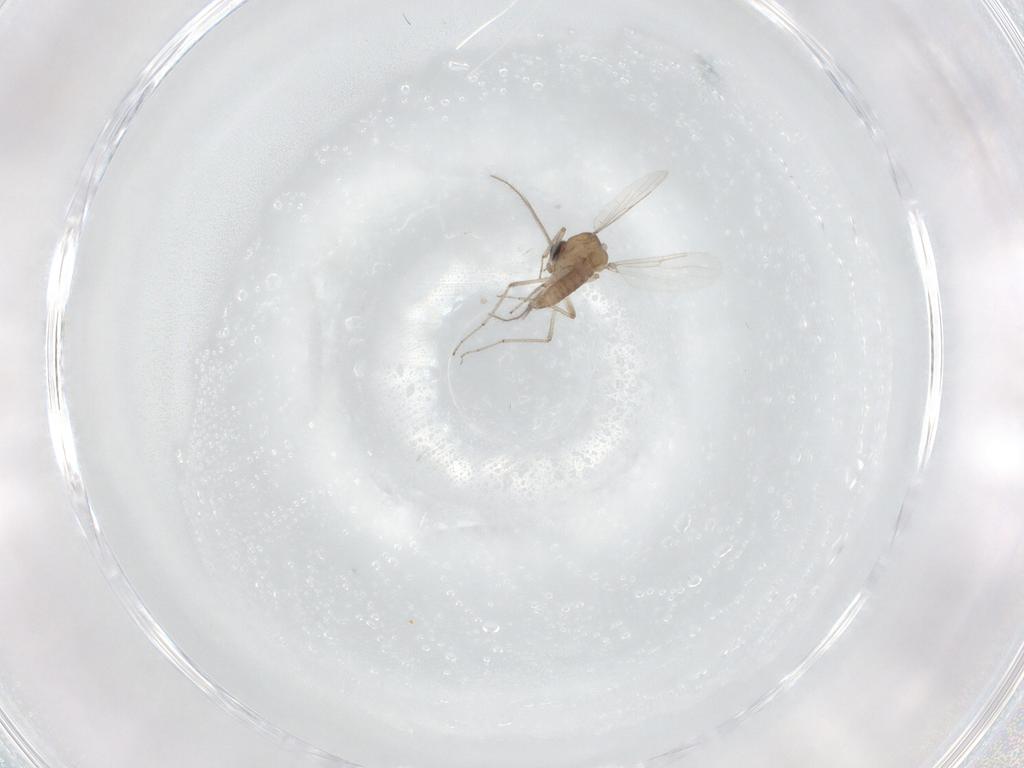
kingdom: Animalia
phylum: Arthropoda
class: Insecta
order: Diptera
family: Ceratopogonidae
